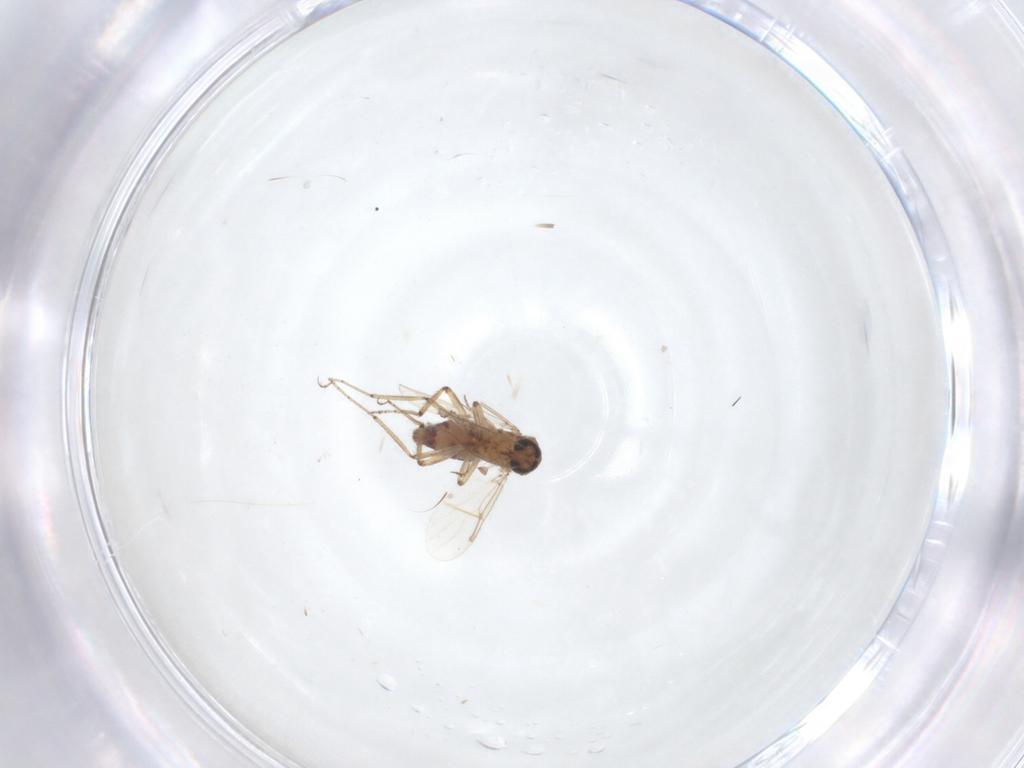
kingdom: Animalia
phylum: Arthropoda
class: Insecta
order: Diptera
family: Ceratopogonidae
